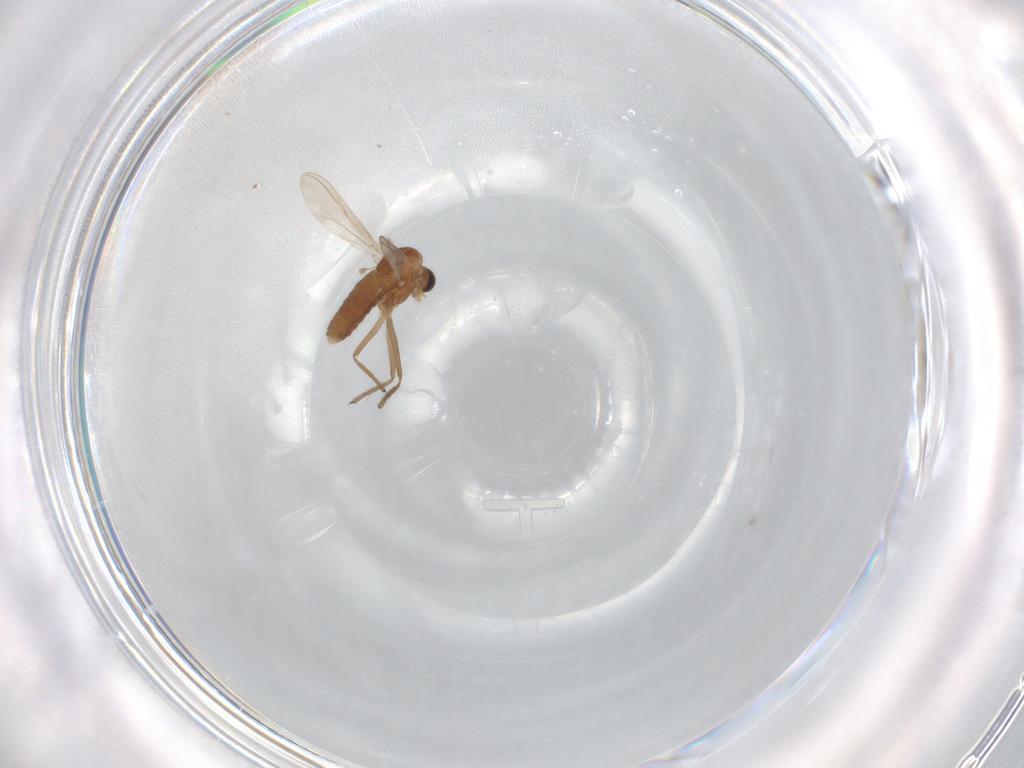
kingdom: Animalia
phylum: Arthropoda
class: Insecta
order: Diptera
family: Chironomidae
